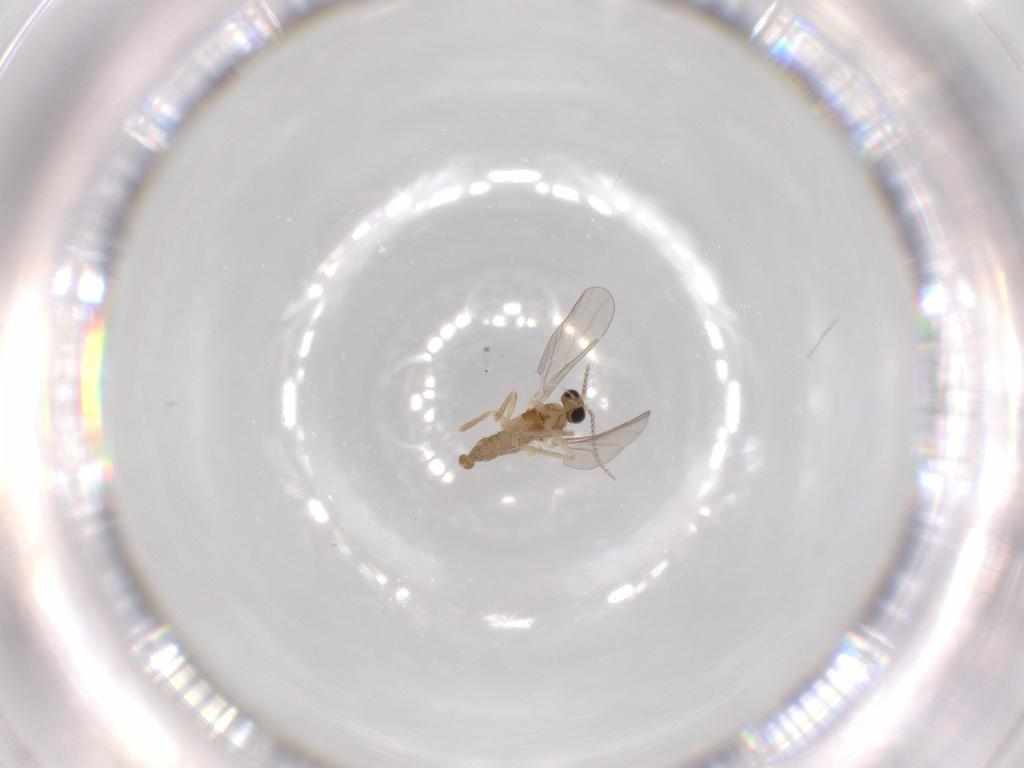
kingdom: Animalia
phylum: Arthropoda
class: Insecta
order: Diptera
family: Cecidomyiidae
